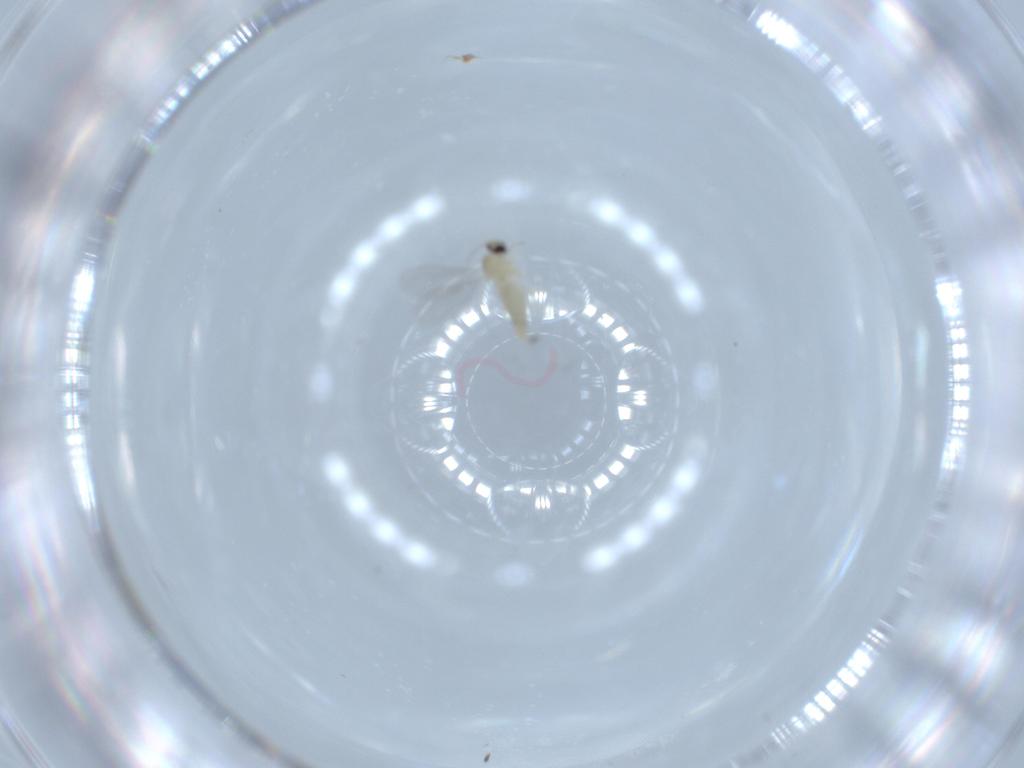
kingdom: Animalia
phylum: Arthropoda
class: Insecta
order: Diptera
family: Cecidomyiidae
